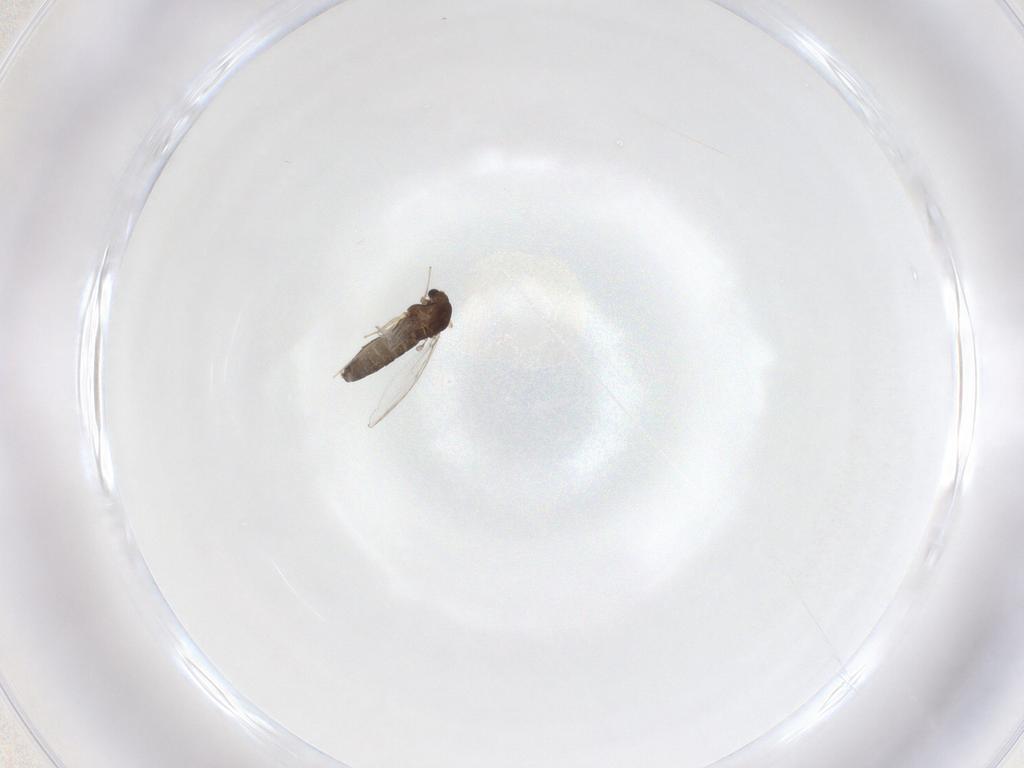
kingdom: Animalia
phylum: Arthropoda
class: Insecta
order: Diptera
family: Chironomidae
